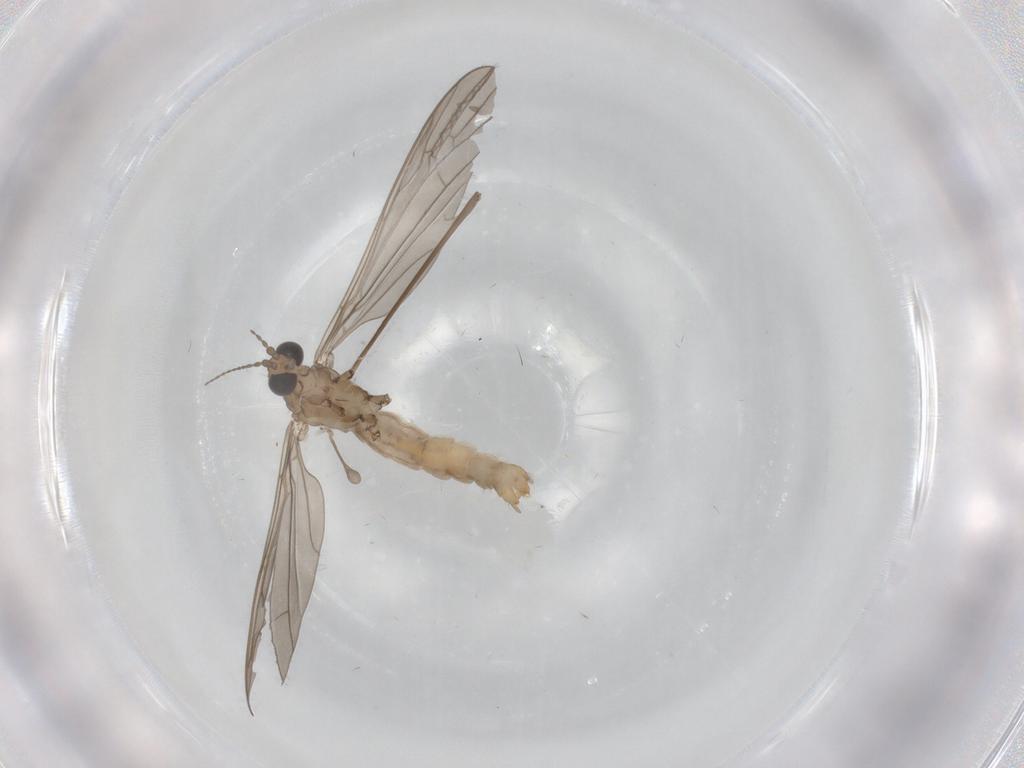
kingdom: Animalia
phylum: Arthropoda
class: Insecta
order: Diptera
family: Limoniidae
